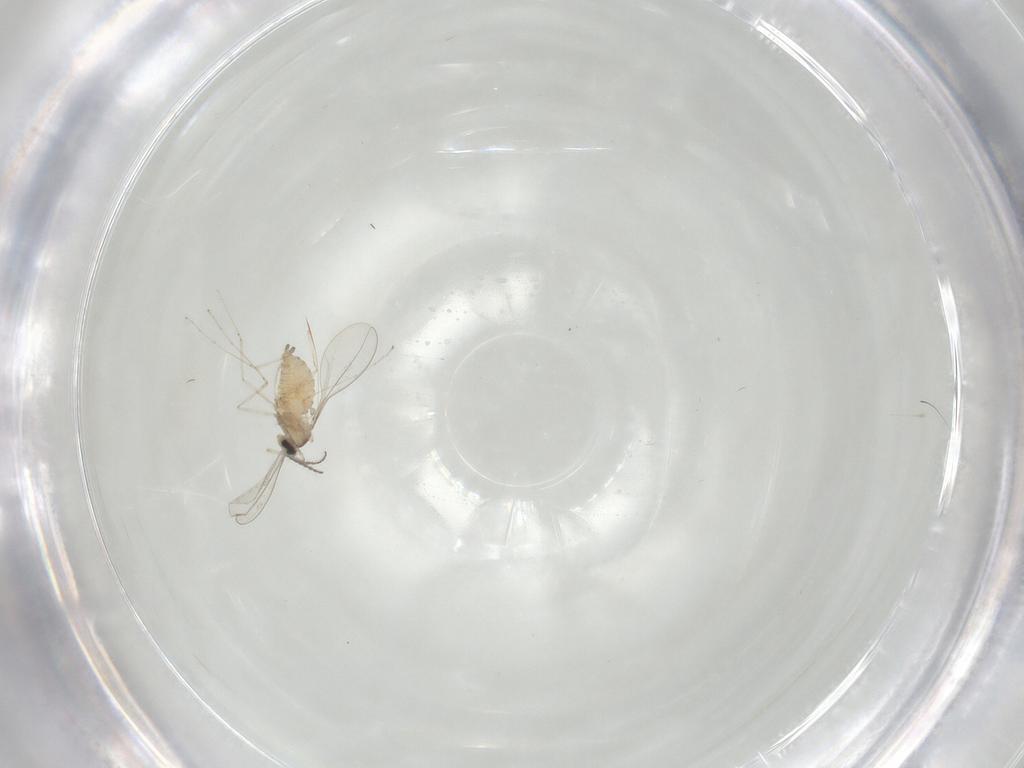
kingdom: Animalia
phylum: Arthropoda
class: Insecta
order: Diptera
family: Cecidomyiidae
